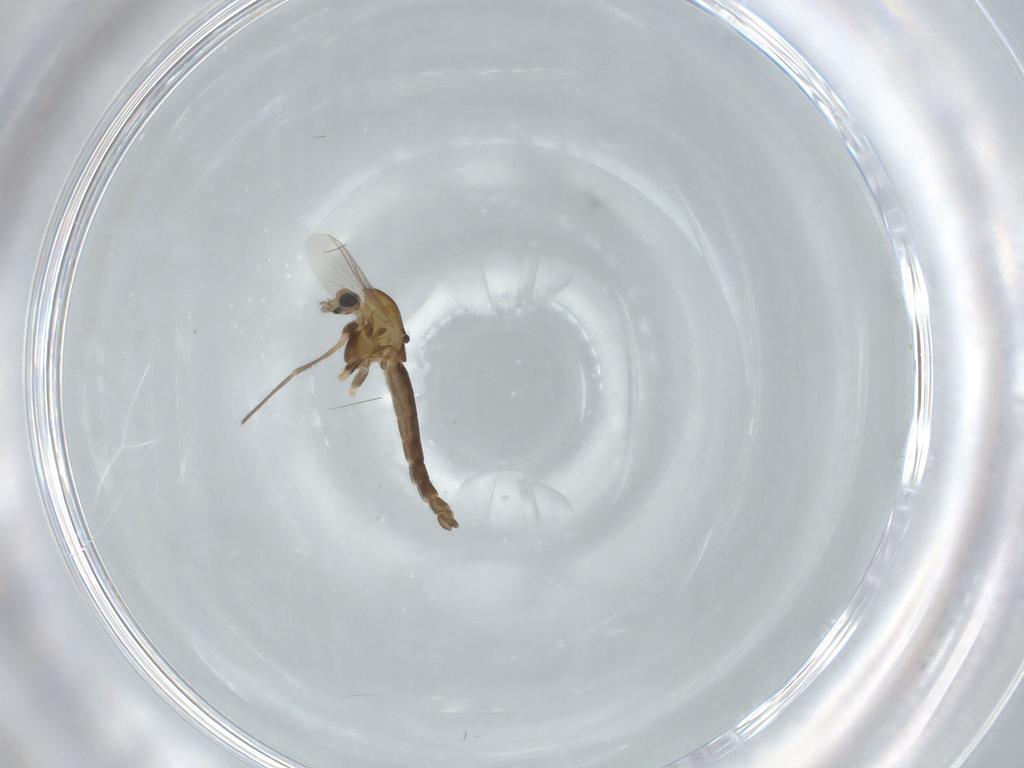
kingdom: Animalia
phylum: Arthropoda
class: Insecta
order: Diptera
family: Chironomidae
